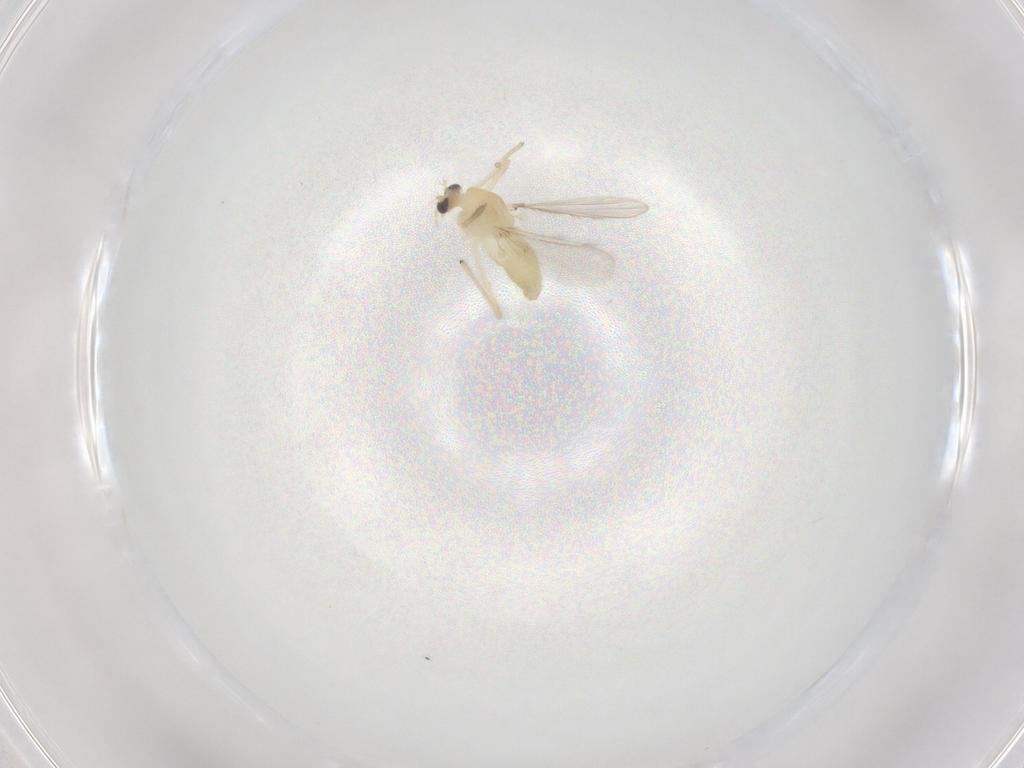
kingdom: Animalia
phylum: Arthropoda
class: Insecta
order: Diptera
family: Chironomidae
